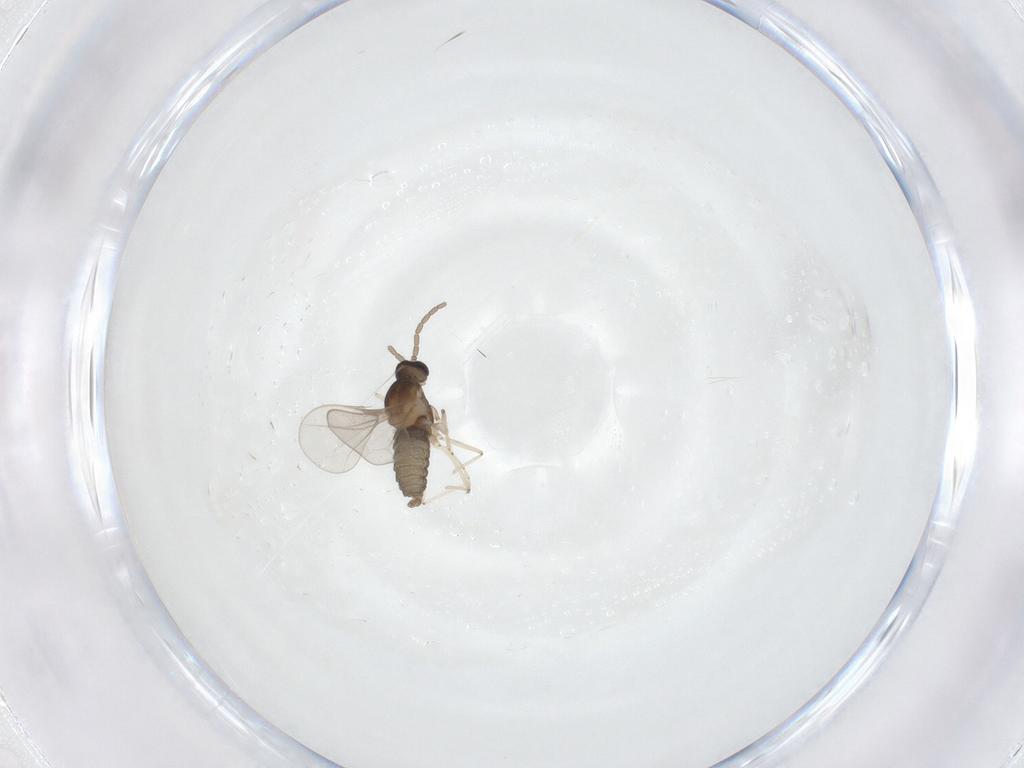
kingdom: Animalia
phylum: Arthropoda
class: Insecta
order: Diptera
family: Cecidomyiidae
